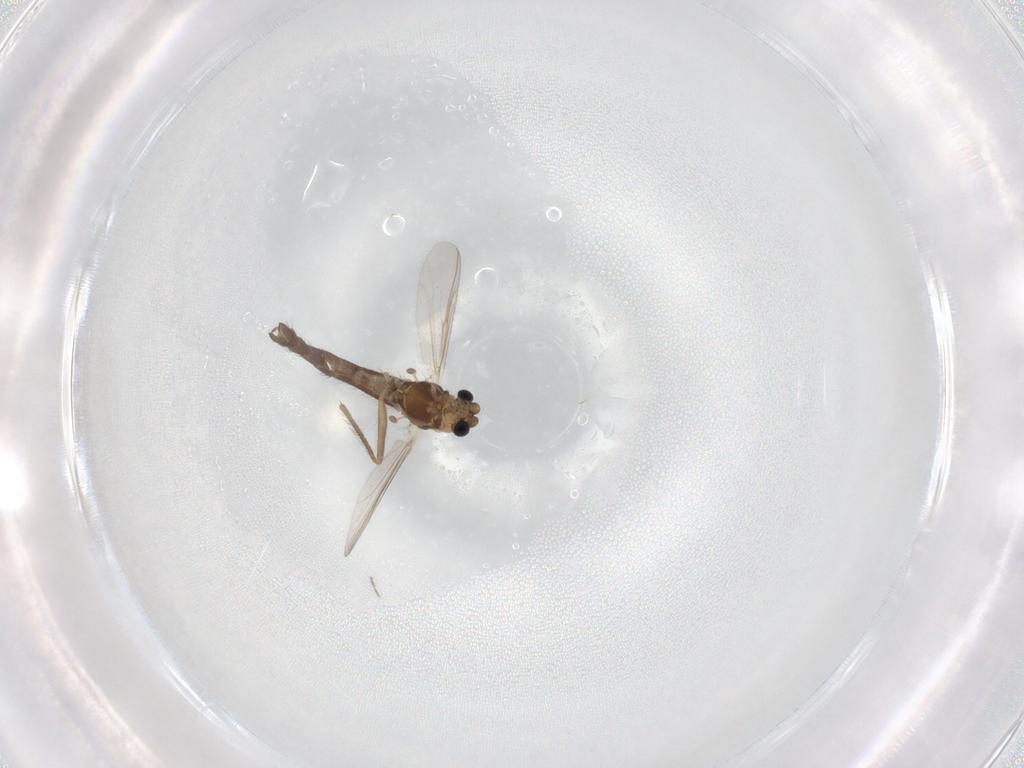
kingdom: Animalia
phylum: Arthropoda
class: Insecta
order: Diptera
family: Chironomidae
